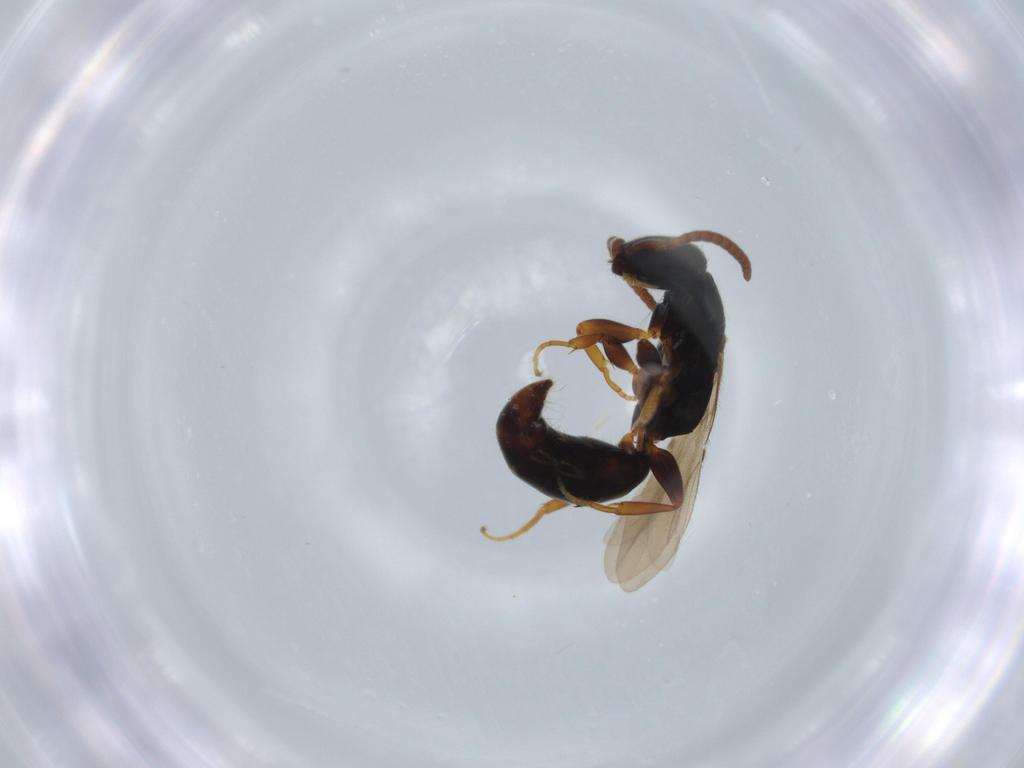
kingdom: Animalia
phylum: Arthropoda
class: Insecta
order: Hymenoptera
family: Bethylidae
